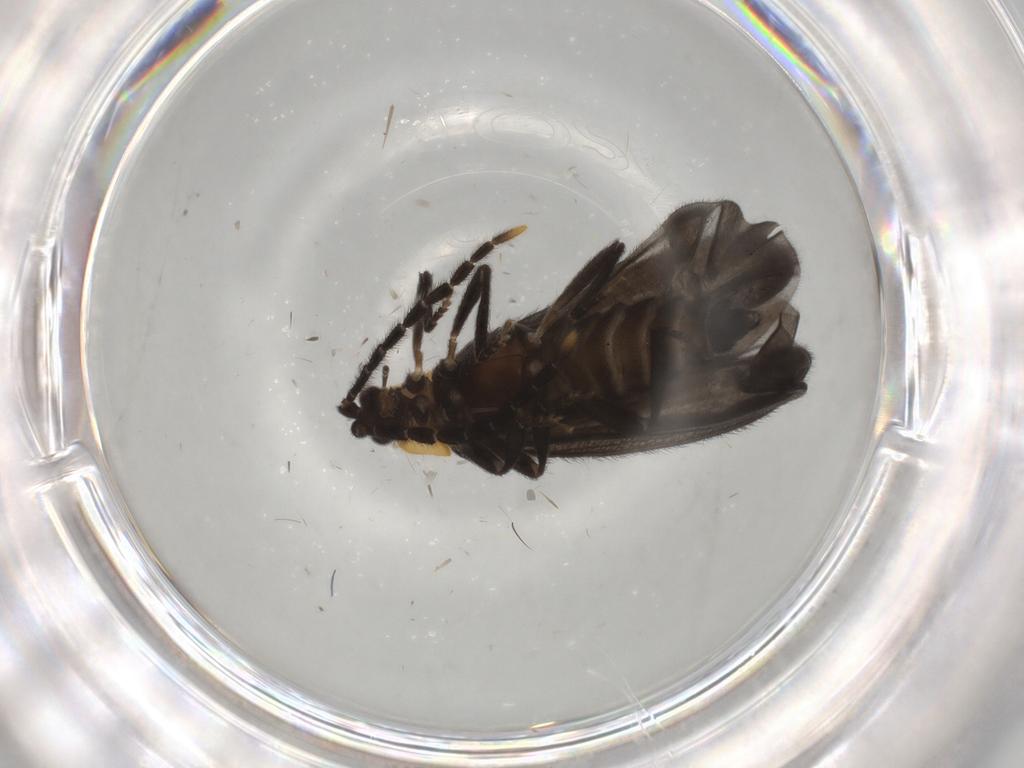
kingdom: Animalia
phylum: Arthropoda
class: Insecta
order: Coleoptera
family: Lycidae
